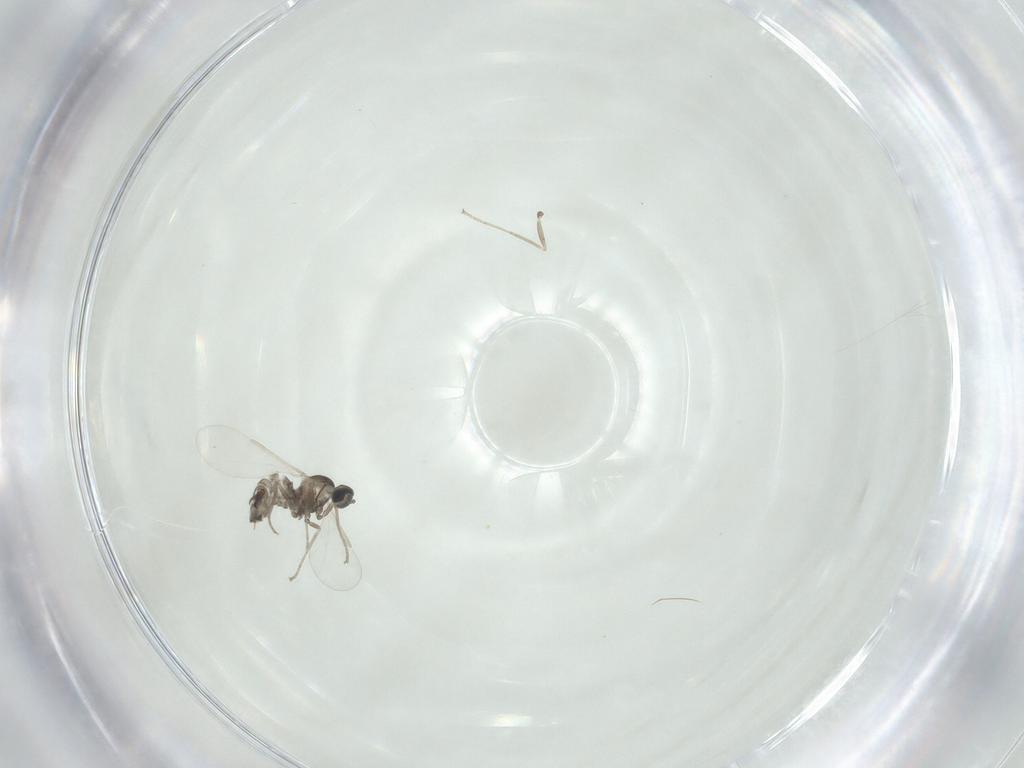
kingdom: Animalia
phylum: Arthropoda
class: Insecta
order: Diptera
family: Cecidomyiidae
